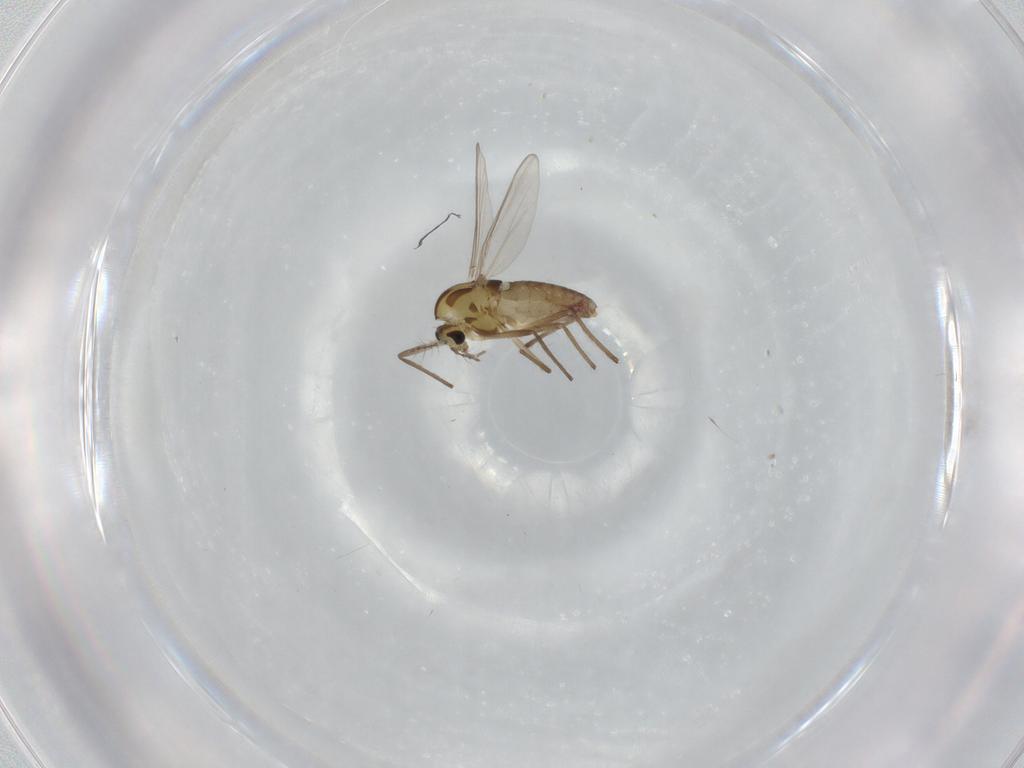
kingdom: Animalia
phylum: Arthropoda
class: Insecta
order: Diptera
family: Chironomidae
